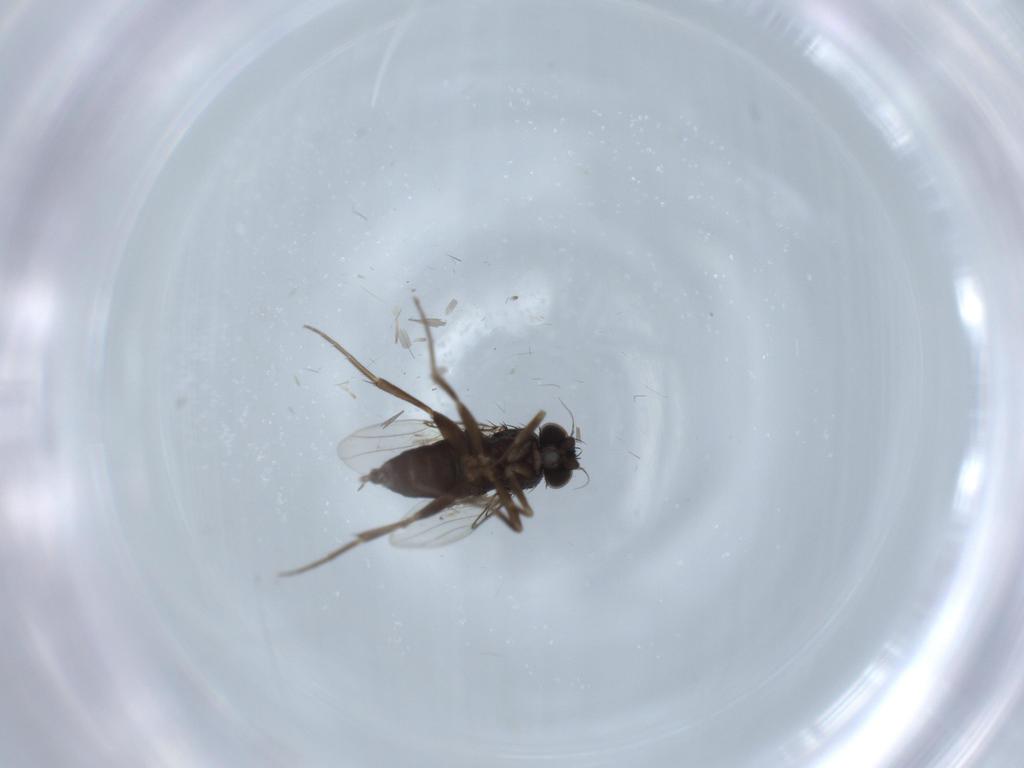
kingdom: Animalia
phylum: Arthropoda
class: Insecta
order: Diptera
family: Phoridae
